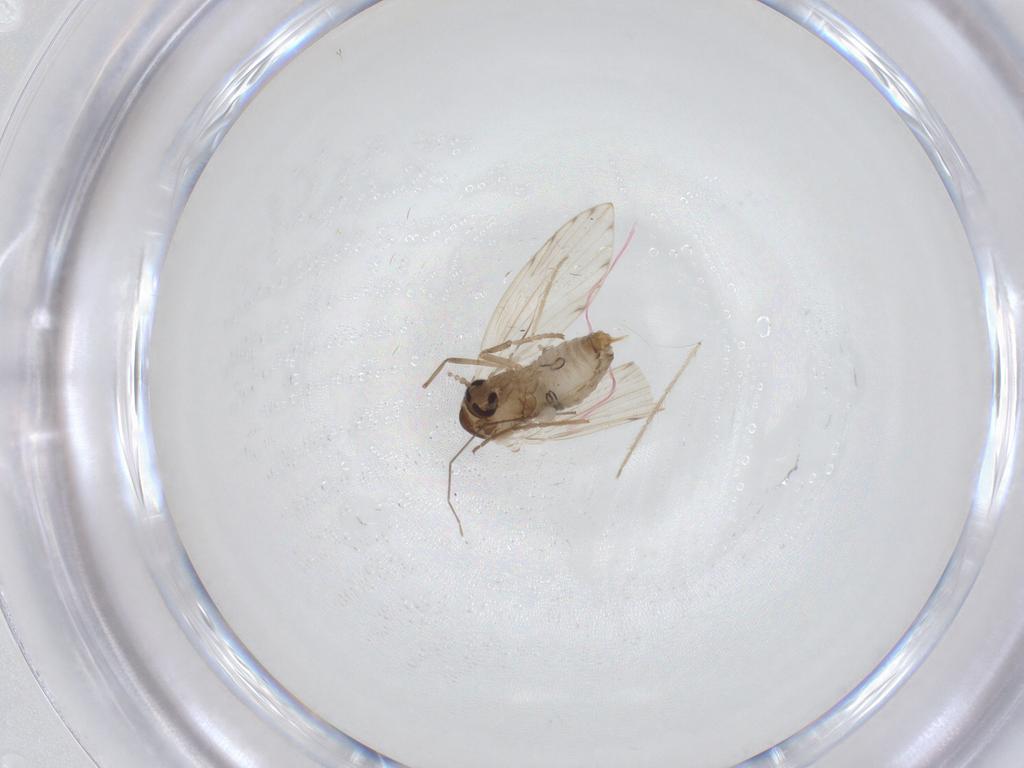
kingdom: Animalia
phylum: Arthropoda
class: Insecta
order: Diptera
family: Psychodidae
